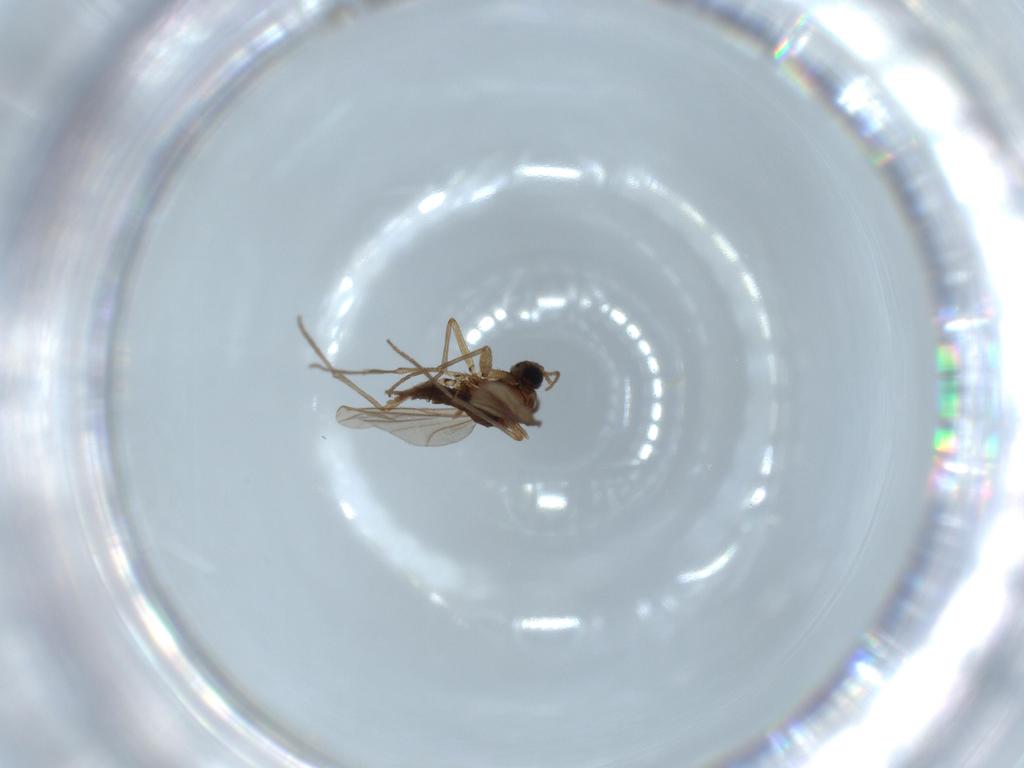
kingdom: Animalia
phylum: Arthropoda
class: Insecta
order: Diptera
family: Sciaridae
